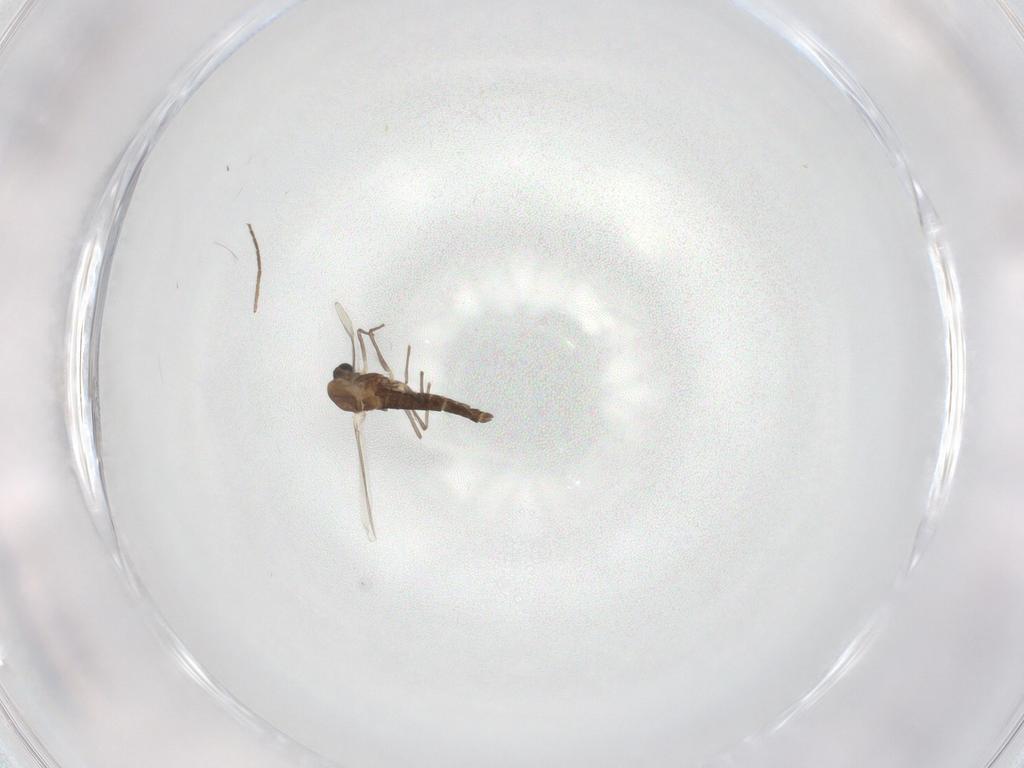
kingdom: Animalia
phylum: Arthropoda
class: Insecta
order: Diptera
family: Chironomidae
